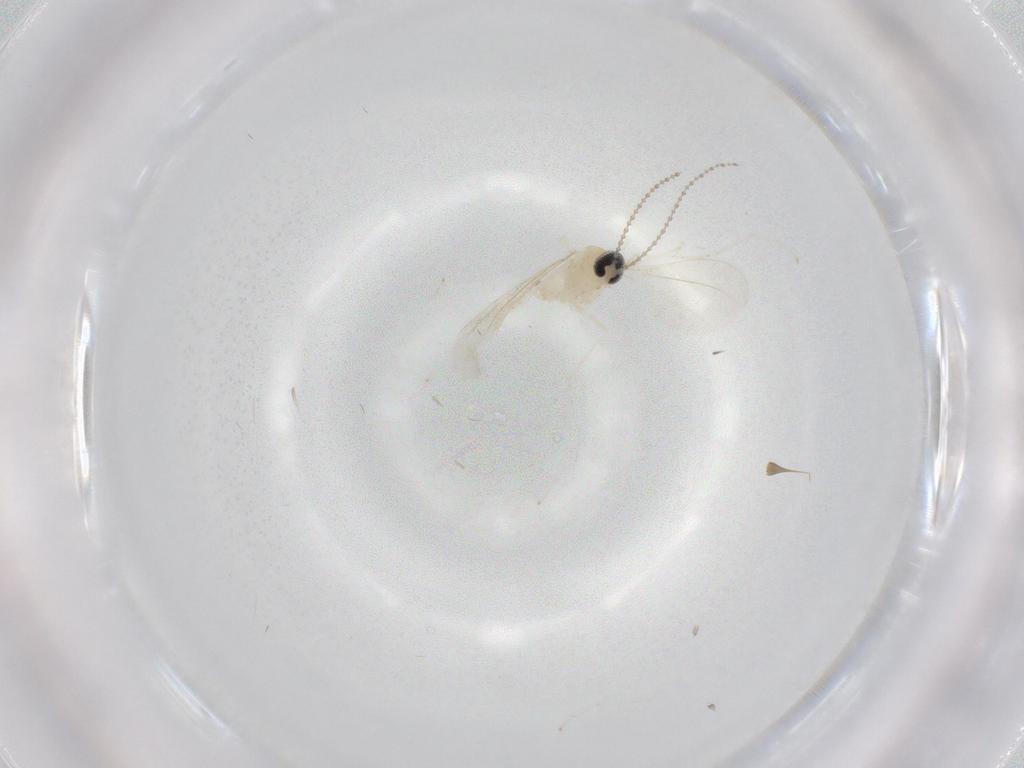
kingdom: Animalia
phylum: Arthropoda
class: Insecta
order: Diptera
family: Cecidomyiidae
